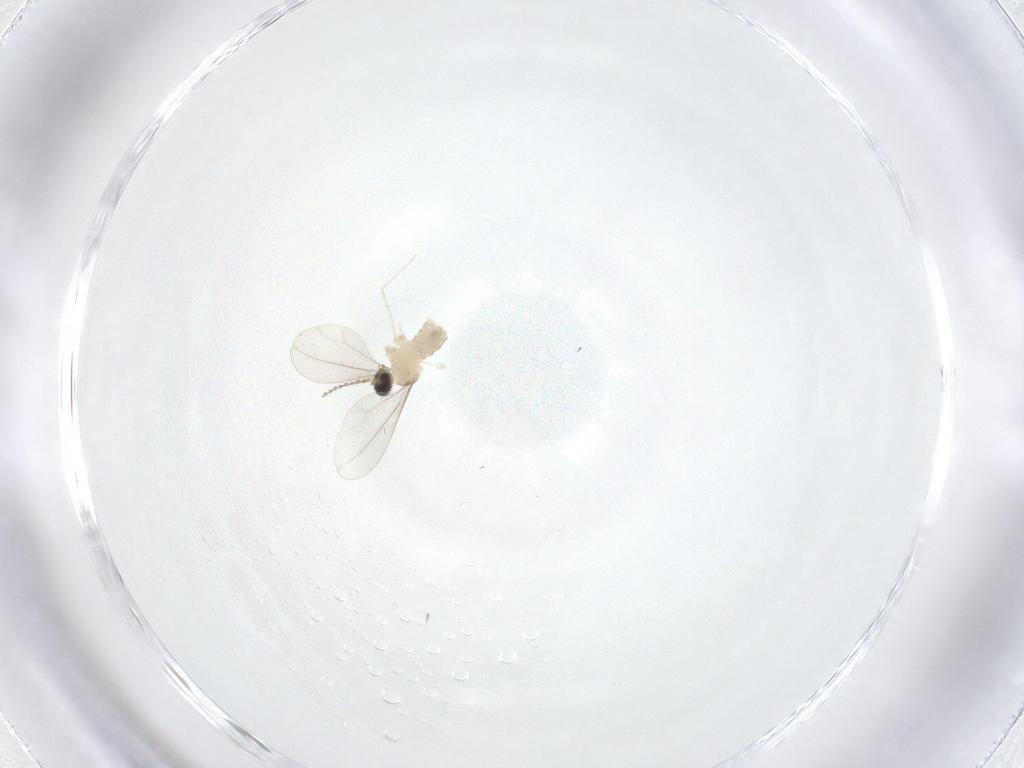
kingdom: Animalia
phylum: Arthropoda
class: Insecta
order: Diptera
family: Cecidomyiidae
